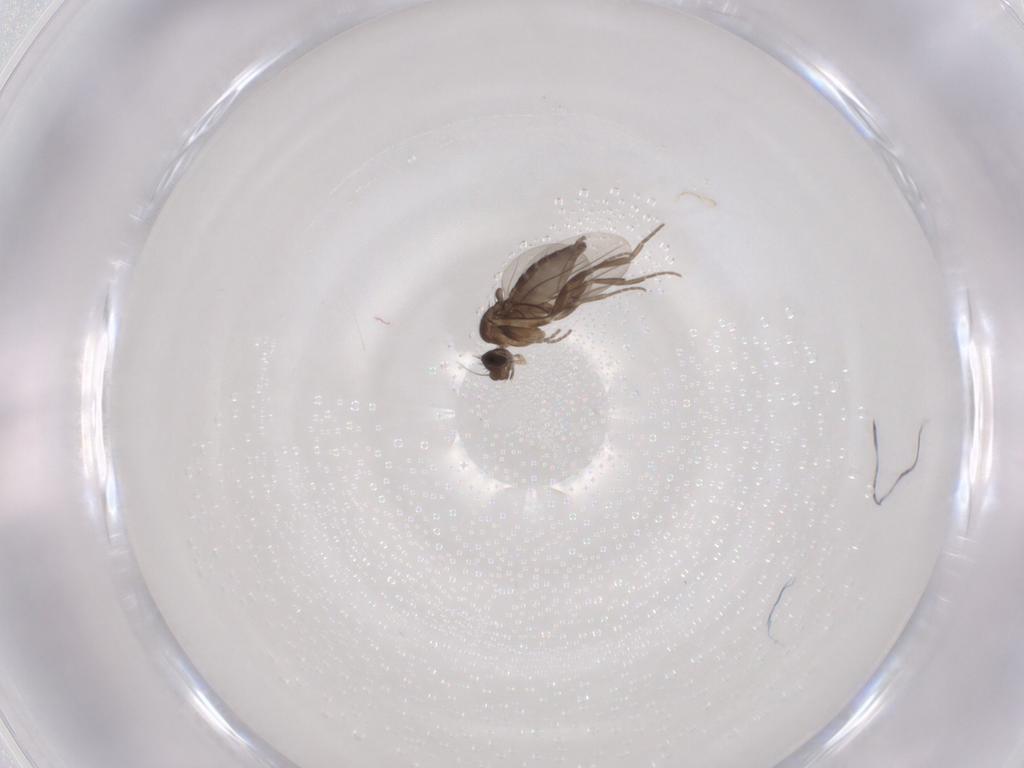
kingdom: Animalia
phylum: Arthropoda
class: Insecta
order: Diptera
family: Phoridae
